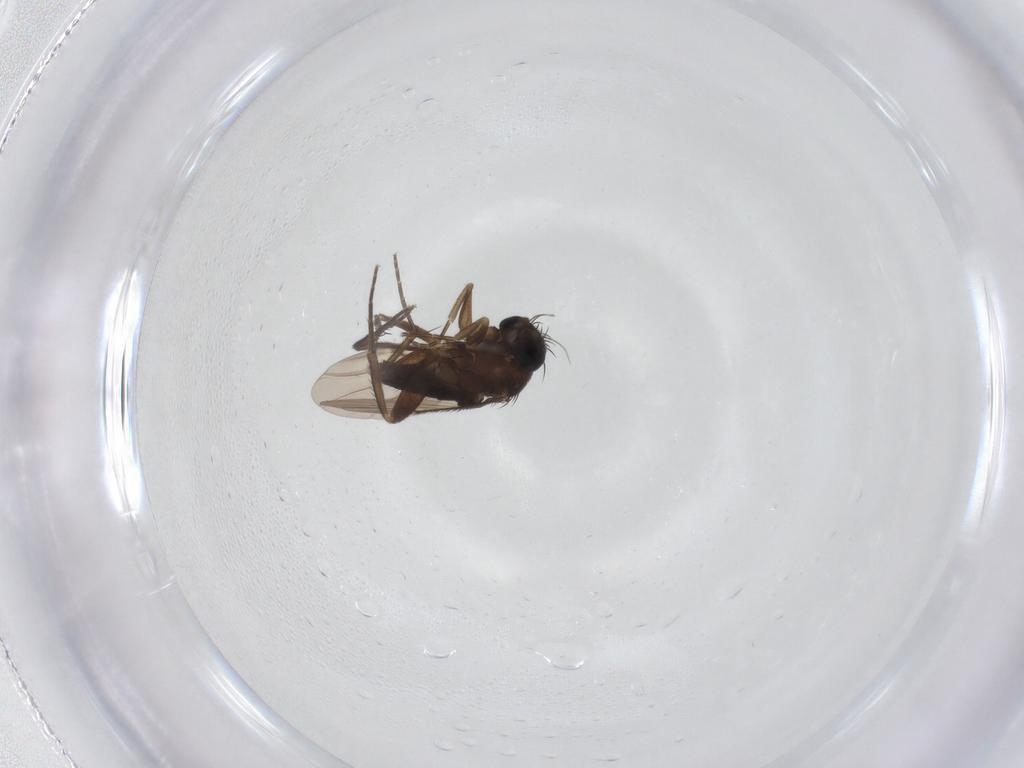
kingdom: Animalia
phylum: Arthropoda
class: Insecta
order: Diptera
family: Phoridae
